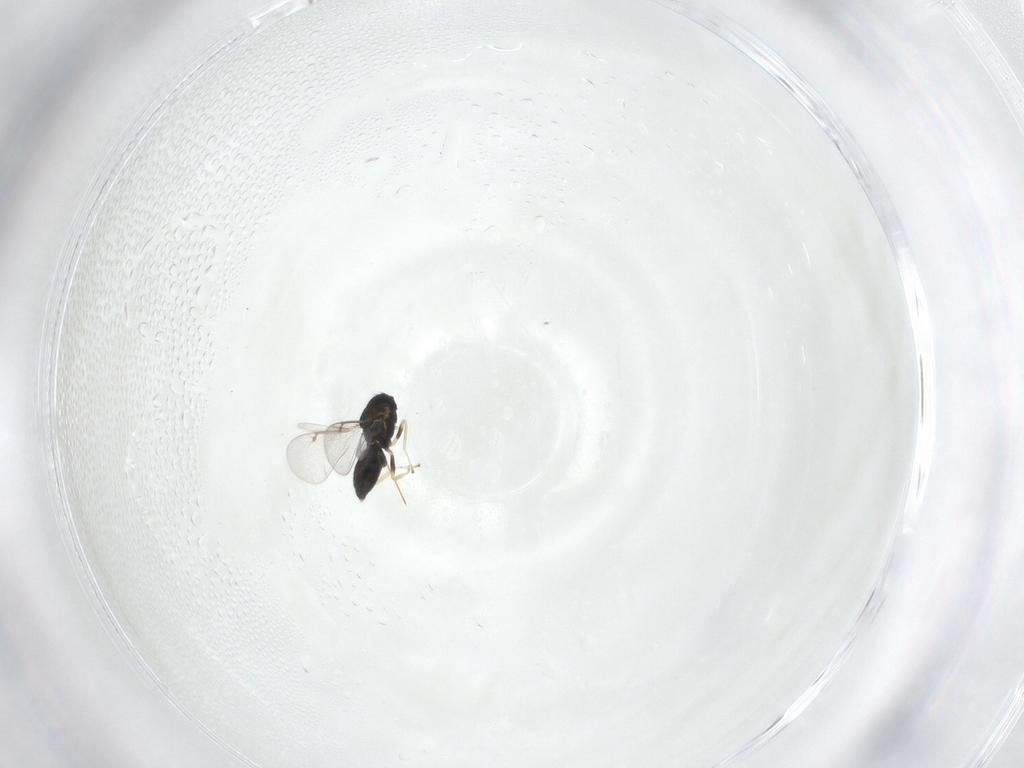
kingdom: Animalia
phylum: Arthropoda
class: Insecta
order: Hymenoptera
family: Eulophidae
